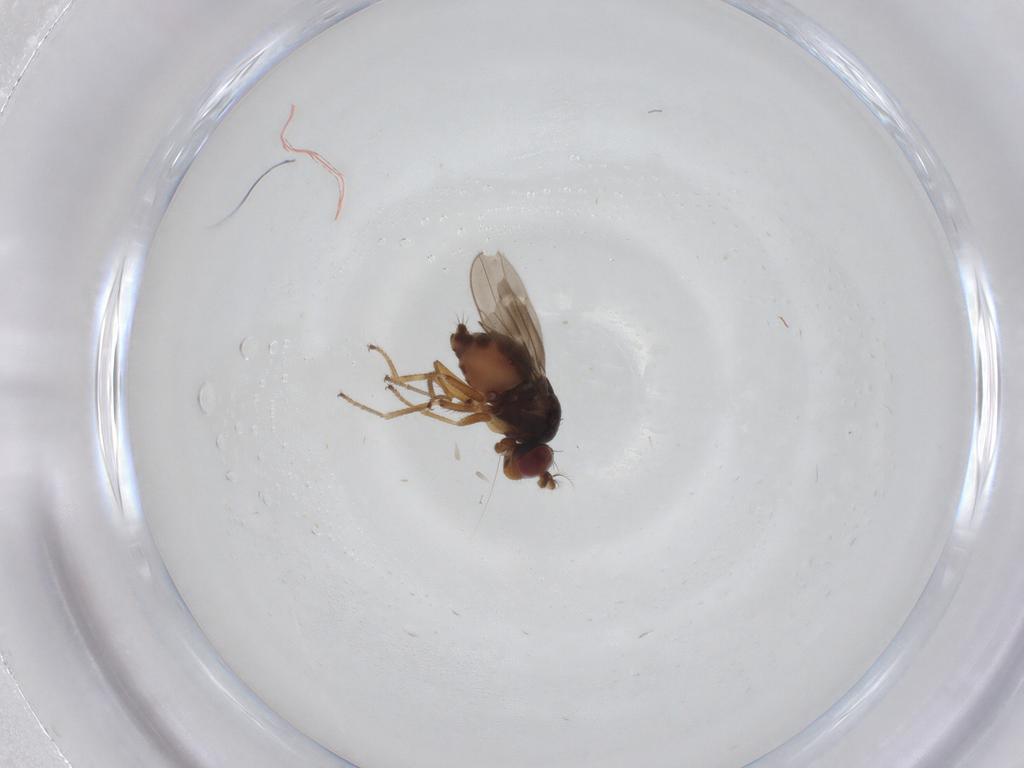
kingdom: Animalia
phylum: Arthropoda
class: Insecta
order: Diptera
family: Ephydridae
